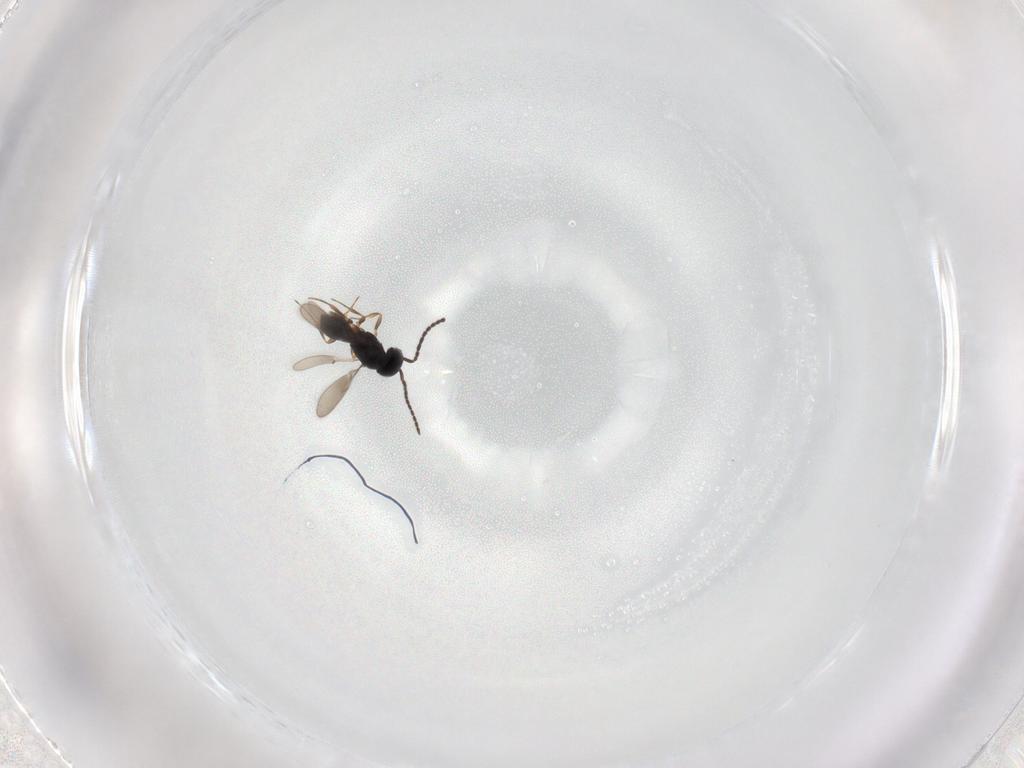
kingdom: Animalia
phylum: Arthropoda
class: Insecta
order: Hymenoptera
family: Scelionidae
